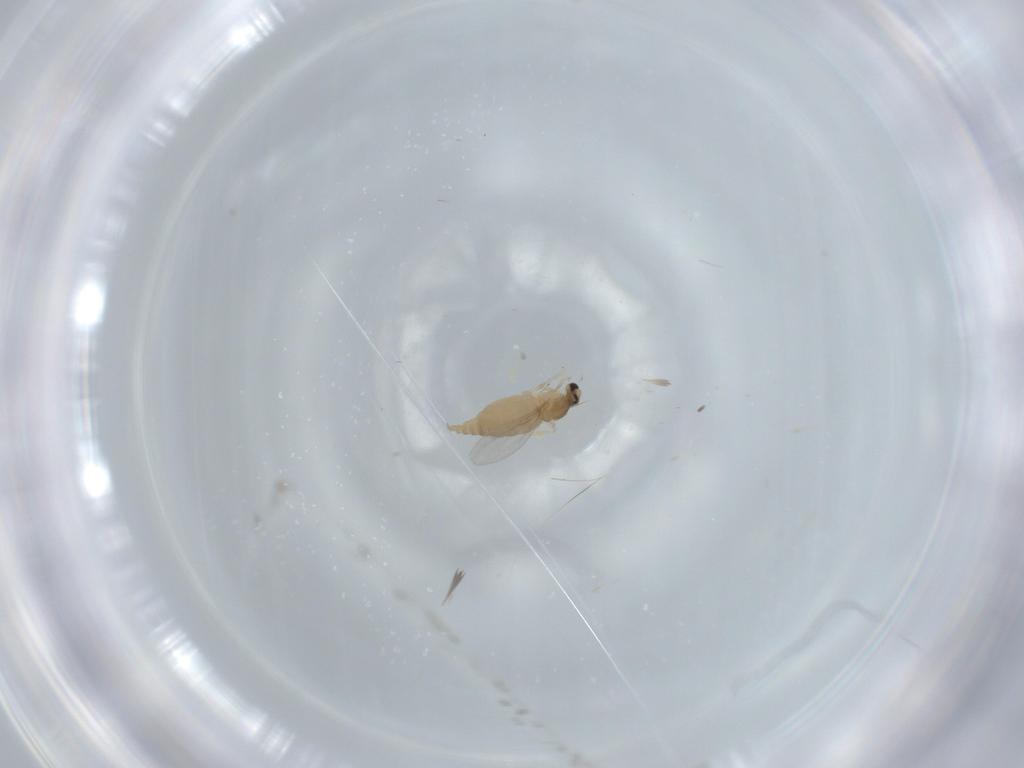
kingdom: Animalia
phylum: Arthropoda
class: Insecta
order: Diptera
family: Cecidomyiidae
